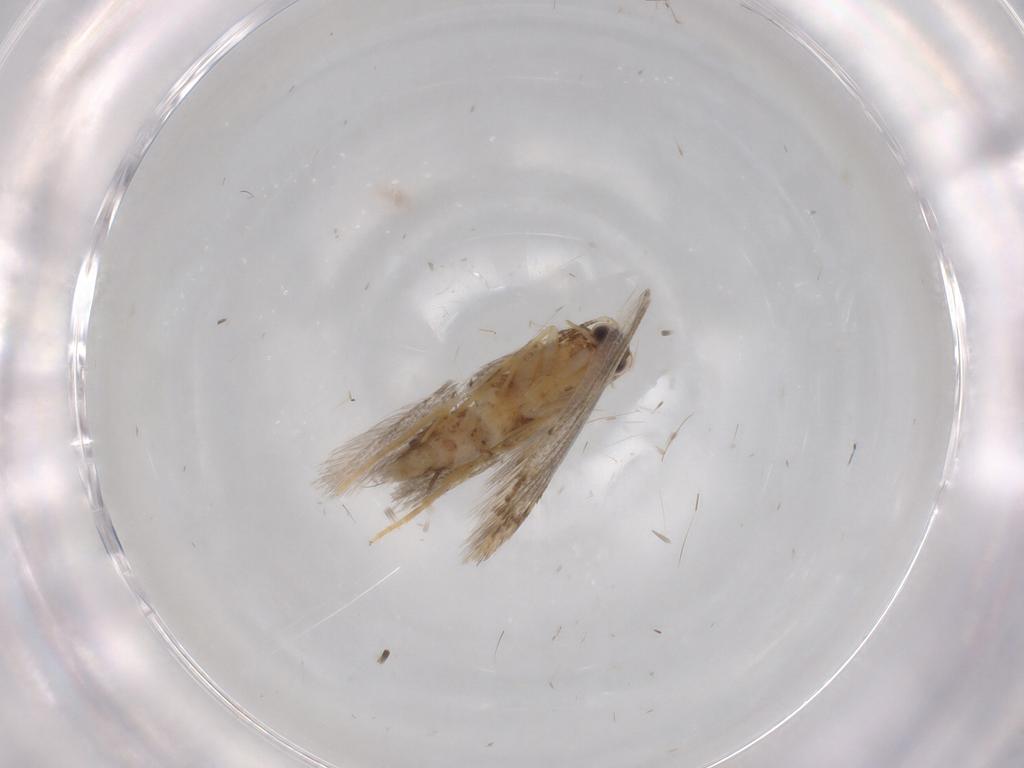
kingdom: Animalia
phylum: Arthropoda
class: Insecta
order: Lepidoptera
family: Tineidae
